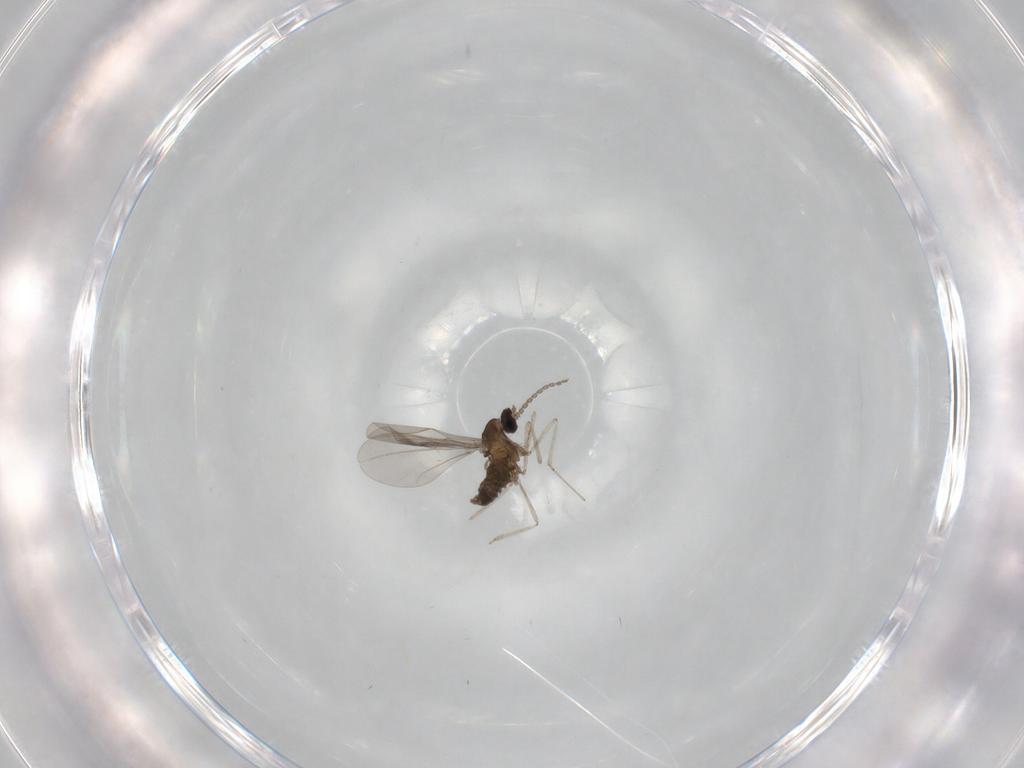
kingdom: Animalia
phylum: Arthropoda
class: Insecta
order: Diptera
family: Cecidomyiidae
